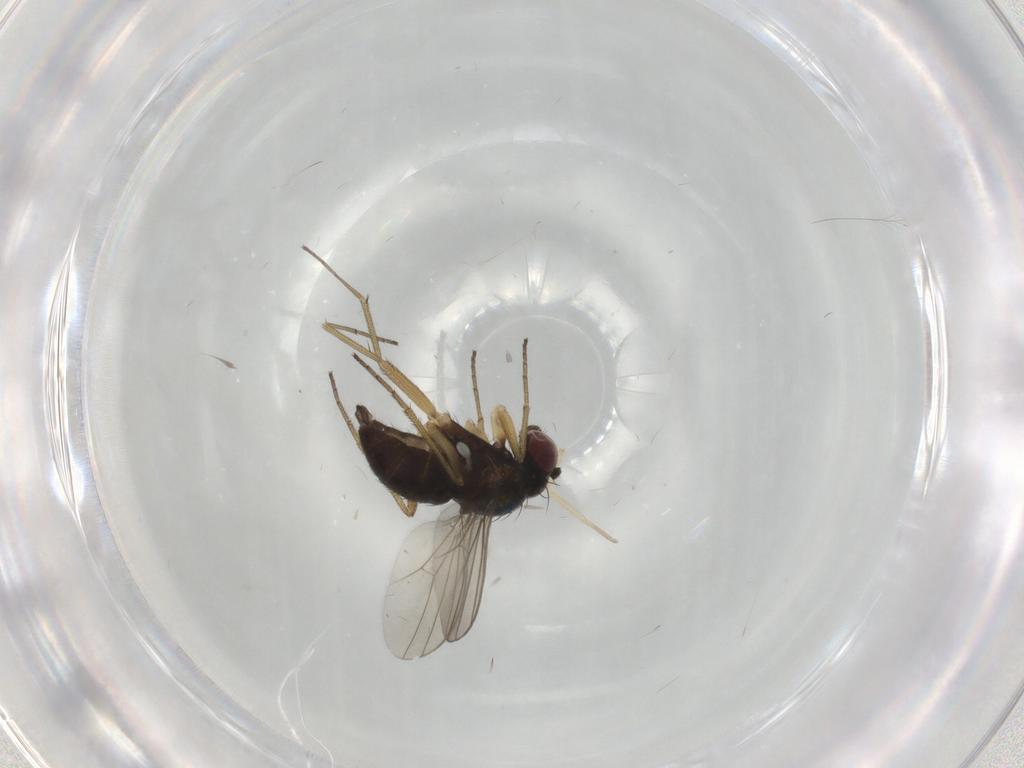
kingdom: Animalia
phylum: Arthropoda
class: Insecta
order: Diptera
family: Dolichopodidae
